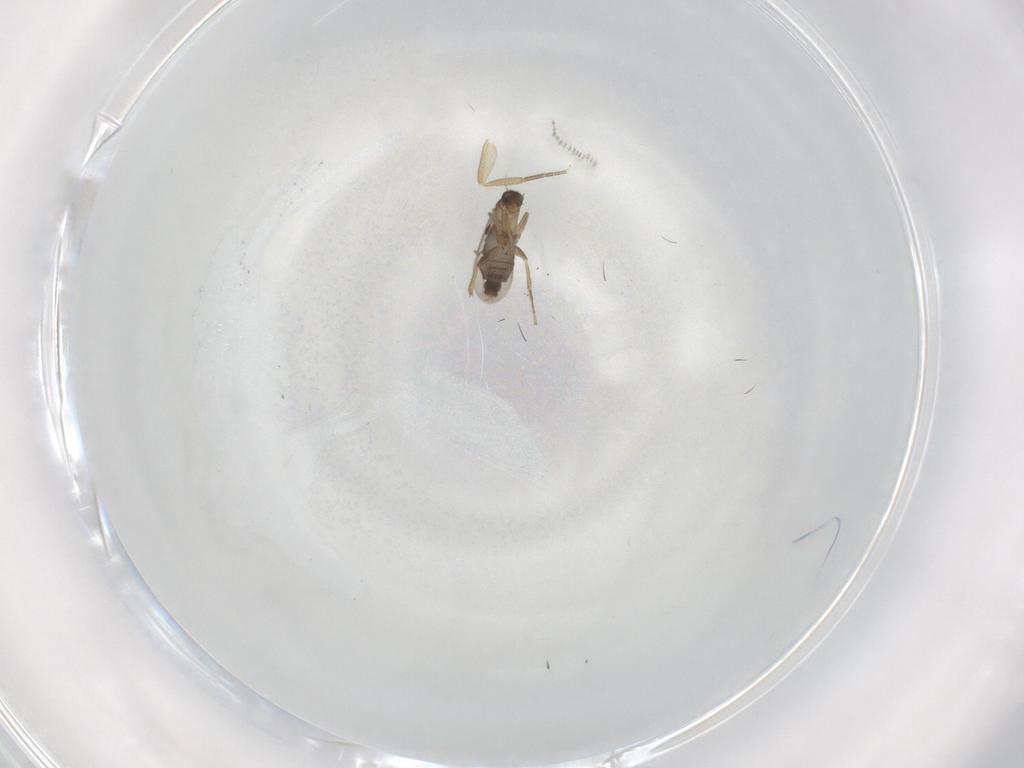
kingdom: Animalia
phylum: Arthropoda
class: Insecta
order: Diptera
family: Phoridae
